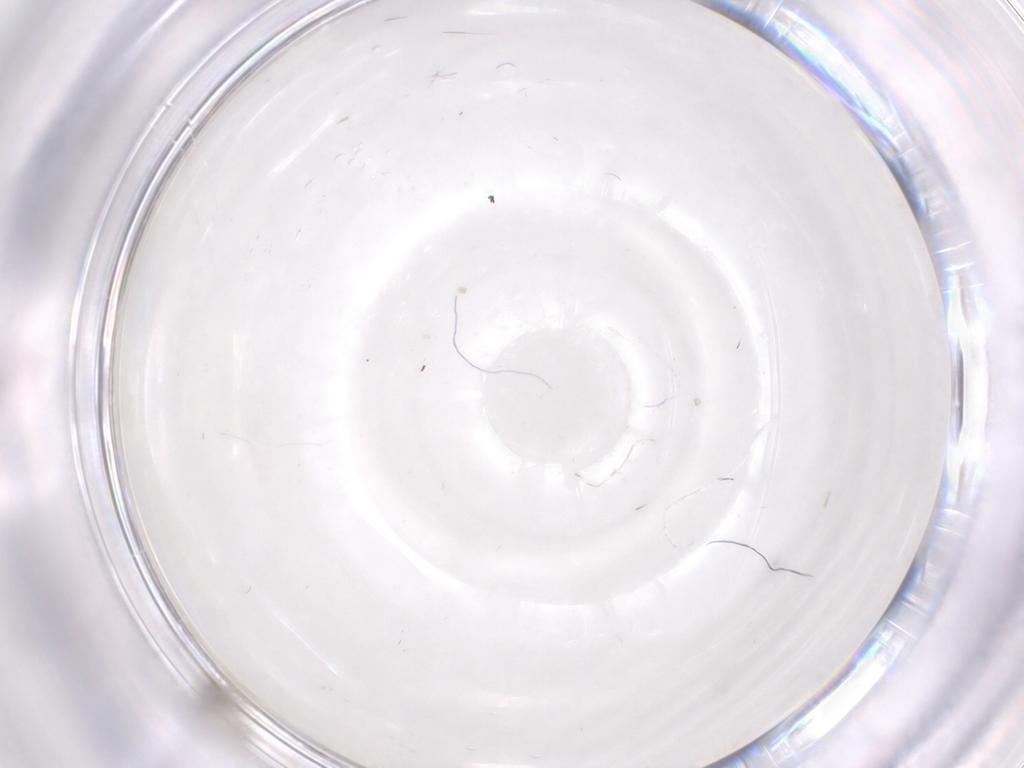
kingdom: Animalia
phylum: Arthropoda
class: Insecta
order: Diptera
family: Cecidomyiidae
